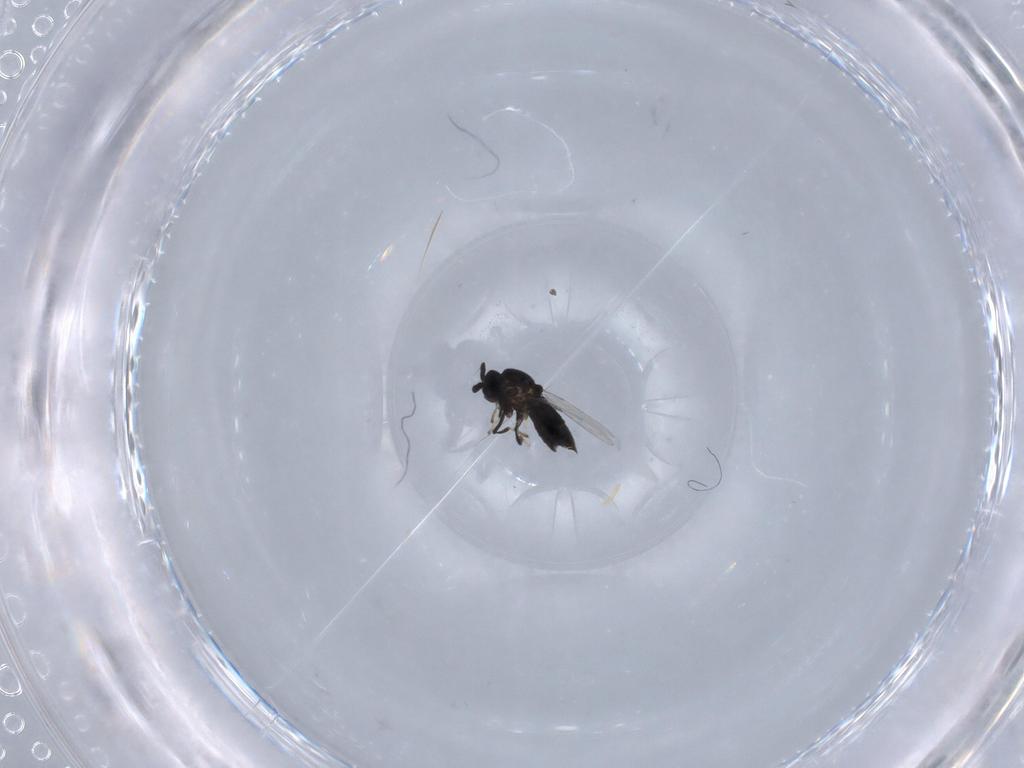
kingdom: Animalia
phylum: Arthropoda
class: Insecta
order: Diptera
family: Scatopsidae
